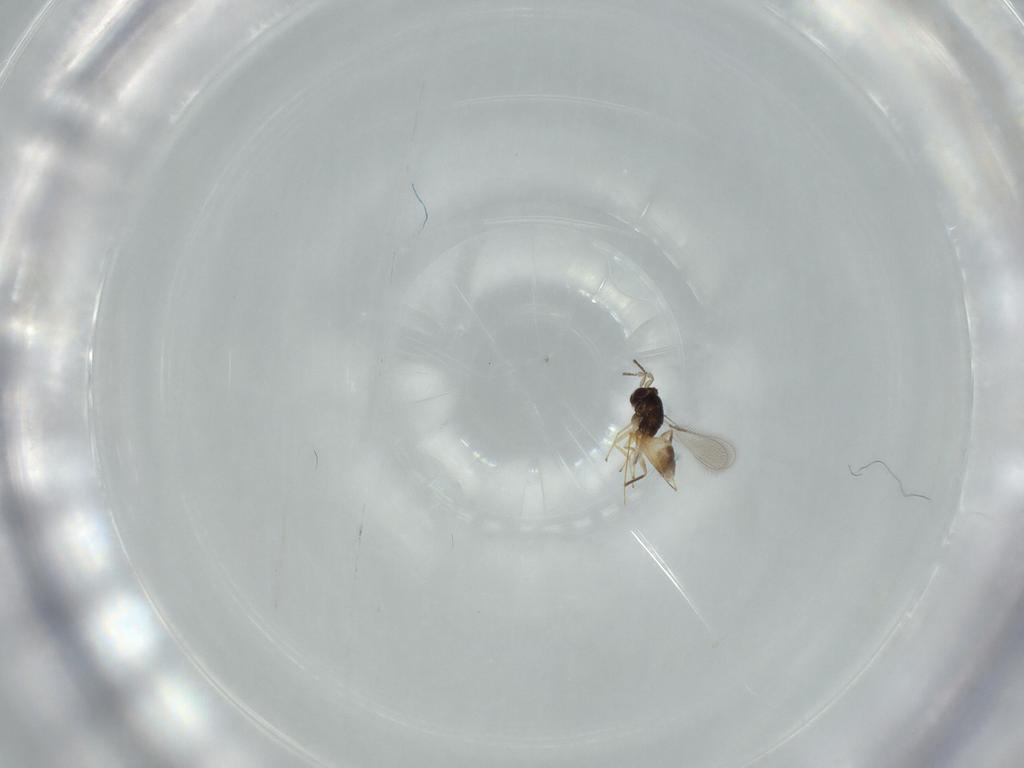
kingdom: Animalia
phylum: Arthropoda
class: Insecta
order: Hymenoptera
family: Mymaridae
